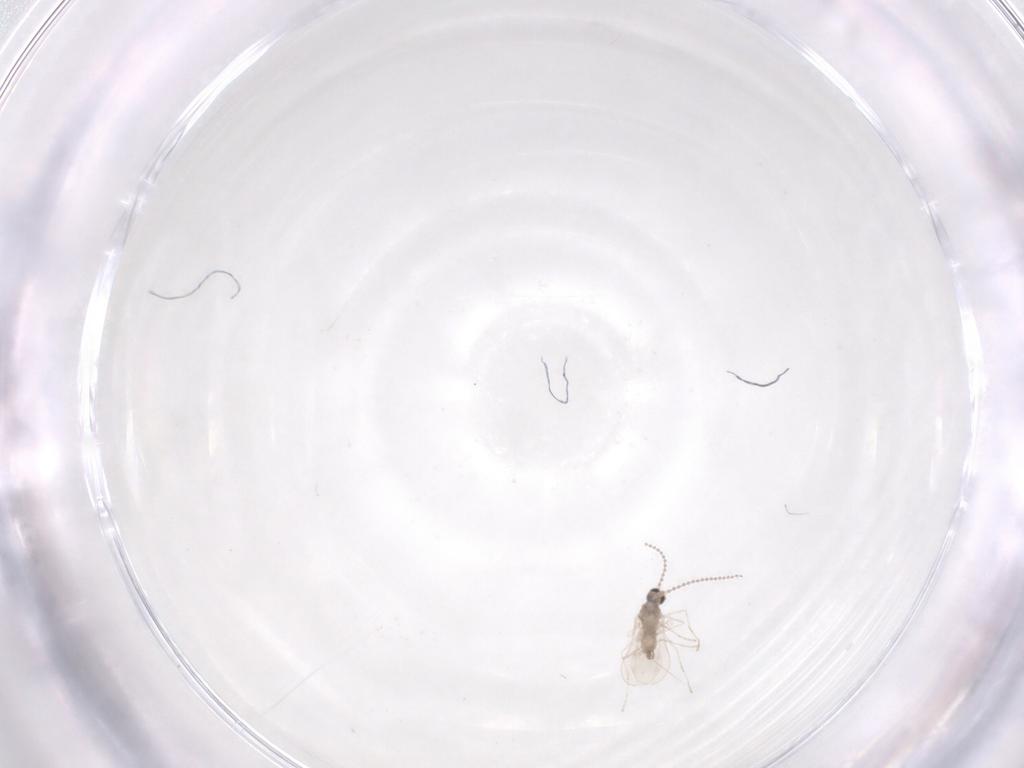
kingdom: Animalia
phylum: Arthropoda
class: Insecta
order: Diptera
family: Cecidomyiidae
